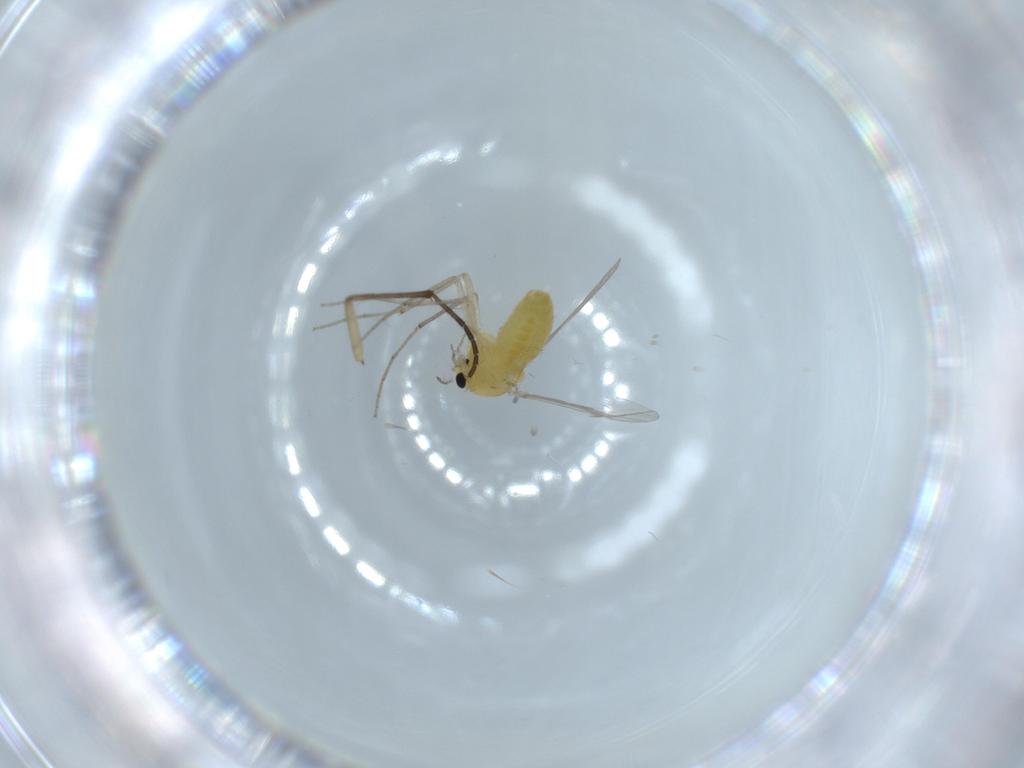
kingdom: Animalia
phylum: Arthropoda
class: Insecta
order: Diptera
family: Chironomidae
